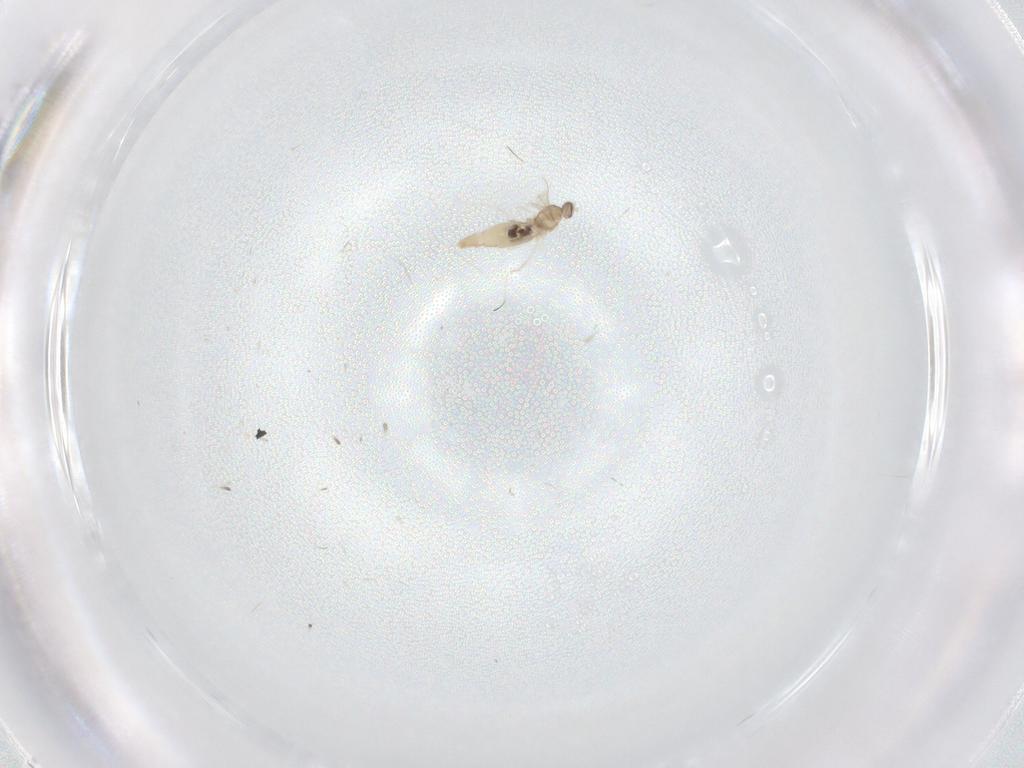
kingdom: Animalia
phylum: Arthropoda
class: Insecta
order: Diptera
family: Cecidomyiidae
